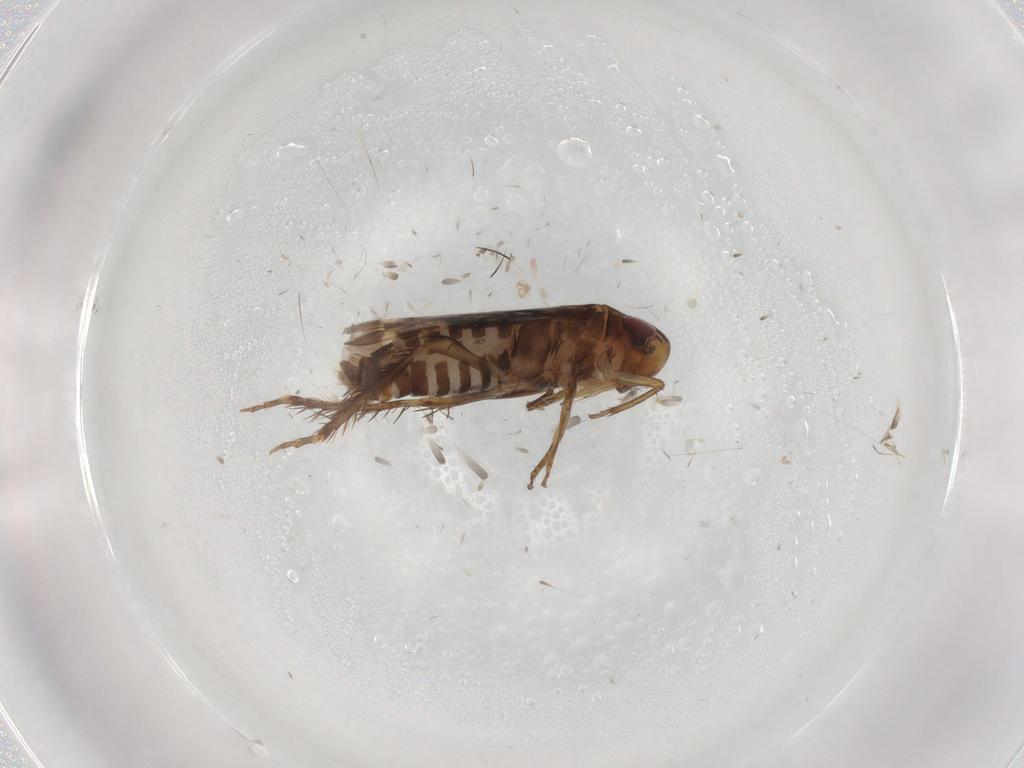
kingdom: Animalia
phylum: Arthropoda
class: Insecta
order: Hemiptera
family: Cicadellidae
